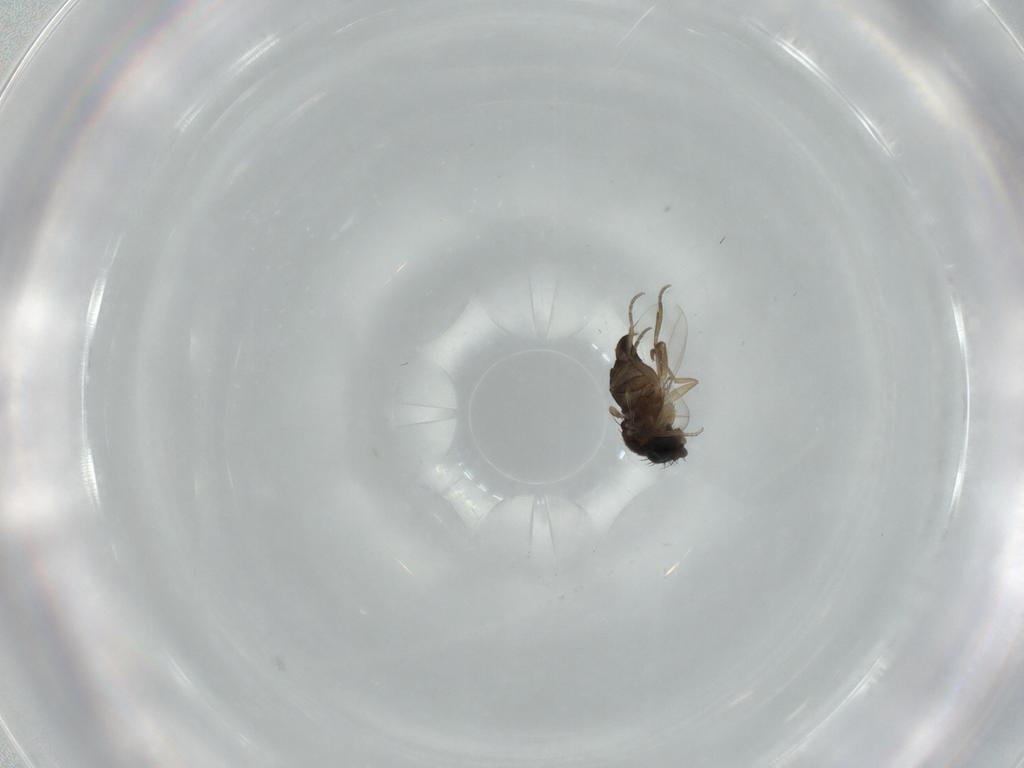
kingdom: Animalia
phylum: Arthropoda
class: Insecta
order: Diptera
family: Phoridae
